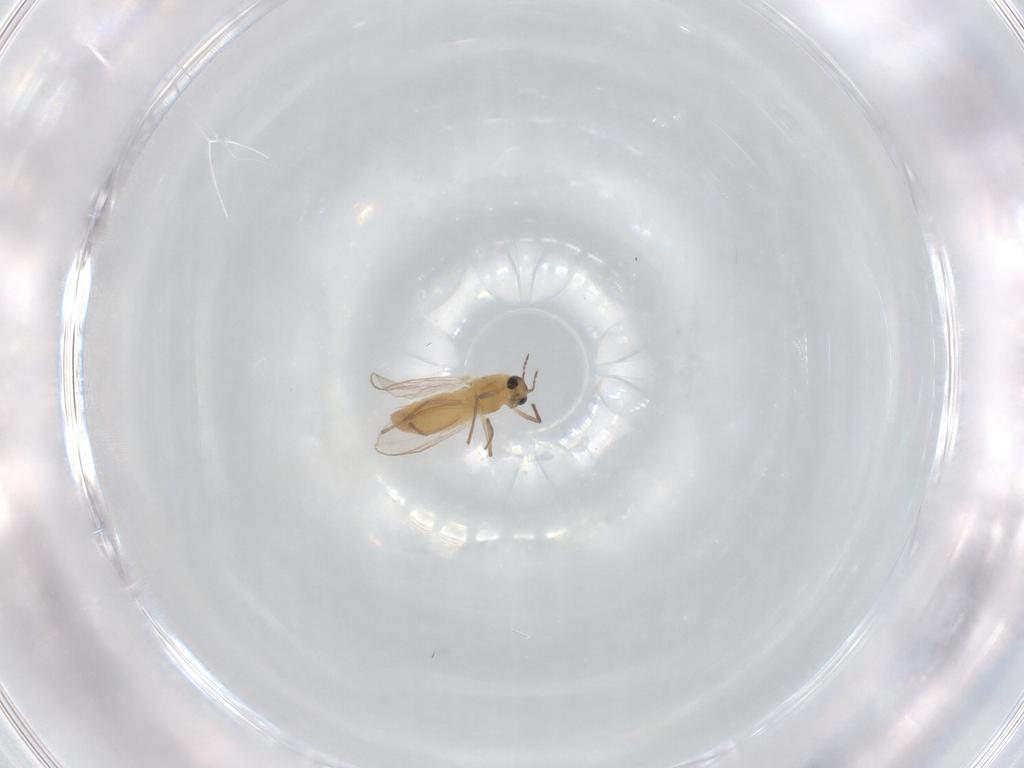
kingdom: Animalia
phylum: Arthropoda
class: Insecta
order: Diptera
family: Chironomidae
